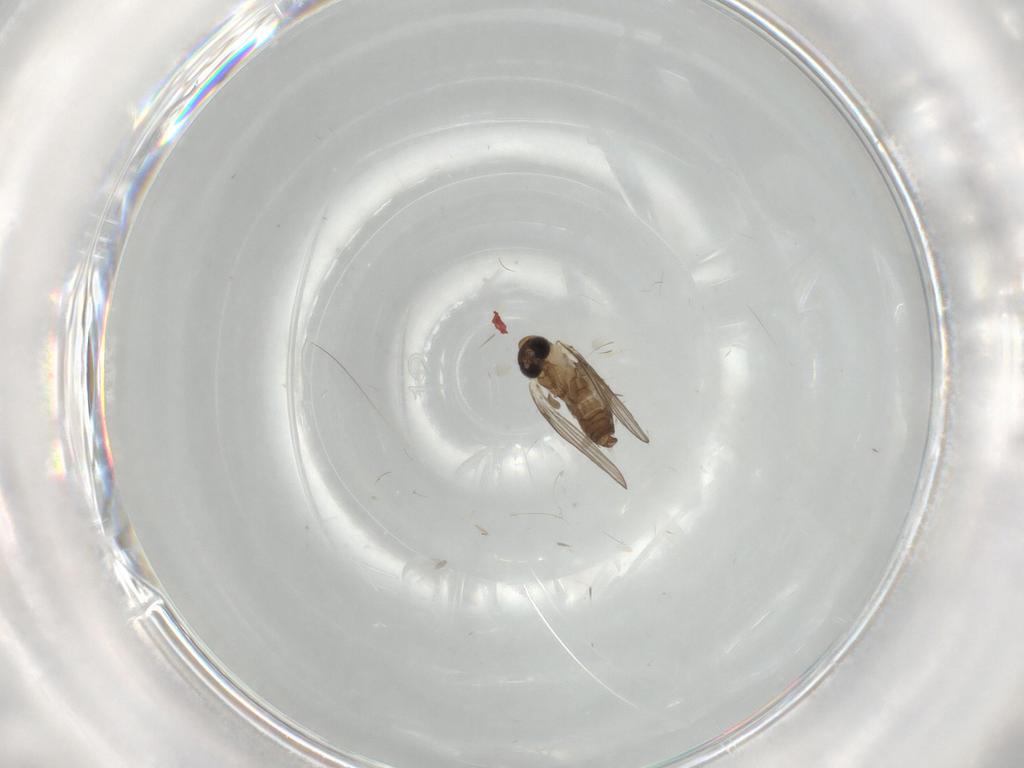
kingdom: Animalia
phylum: Arthropoda
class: Insecta
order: Diptera
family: Psychodidae
